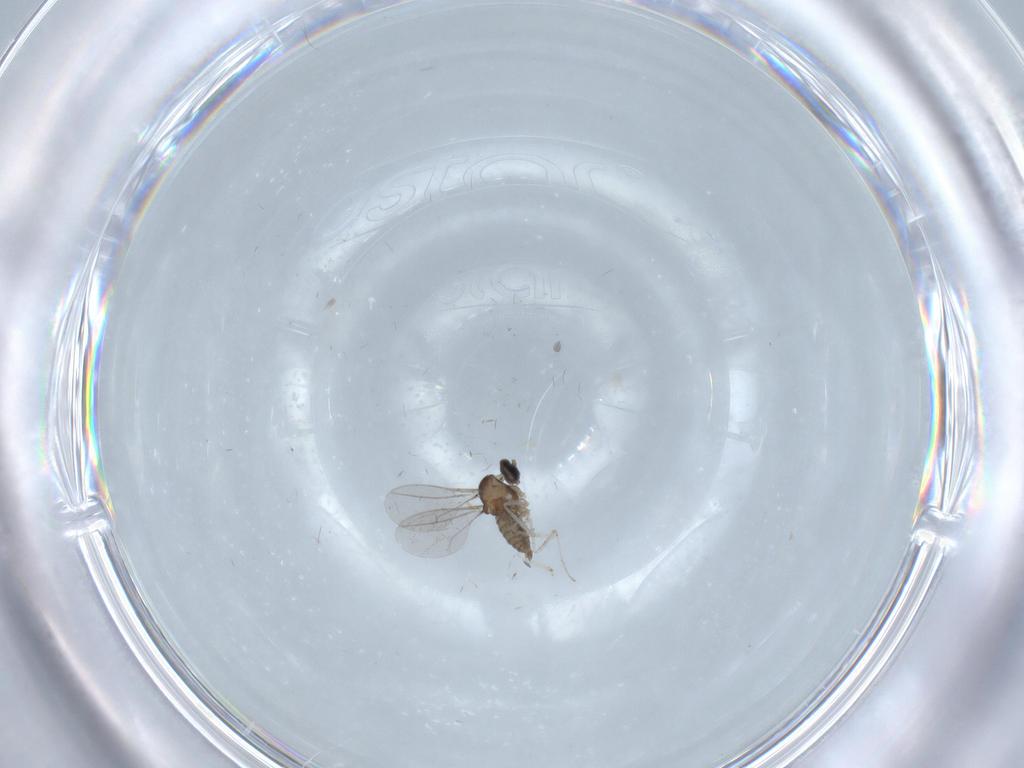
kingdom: Animalia
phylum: Arthropoda
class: Insecta
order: Diptera
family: Cecidomyiidae
